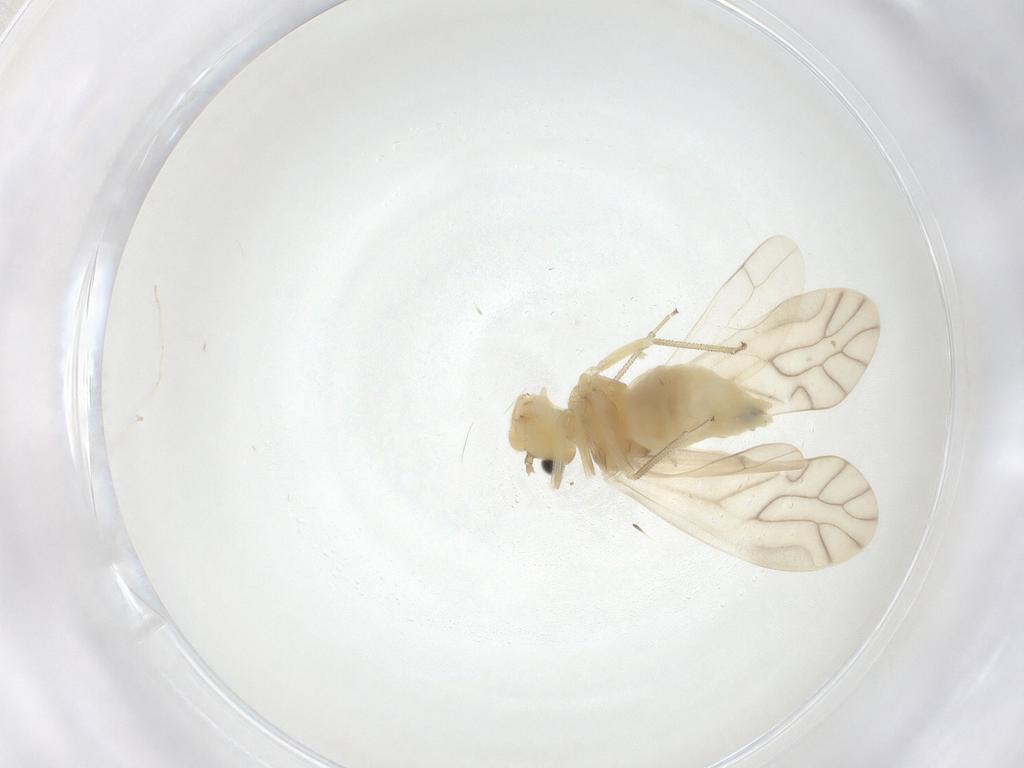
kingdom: Animalia
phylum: Arthropoda
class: Insecta
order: Psocodea
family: Caeciliusidae
